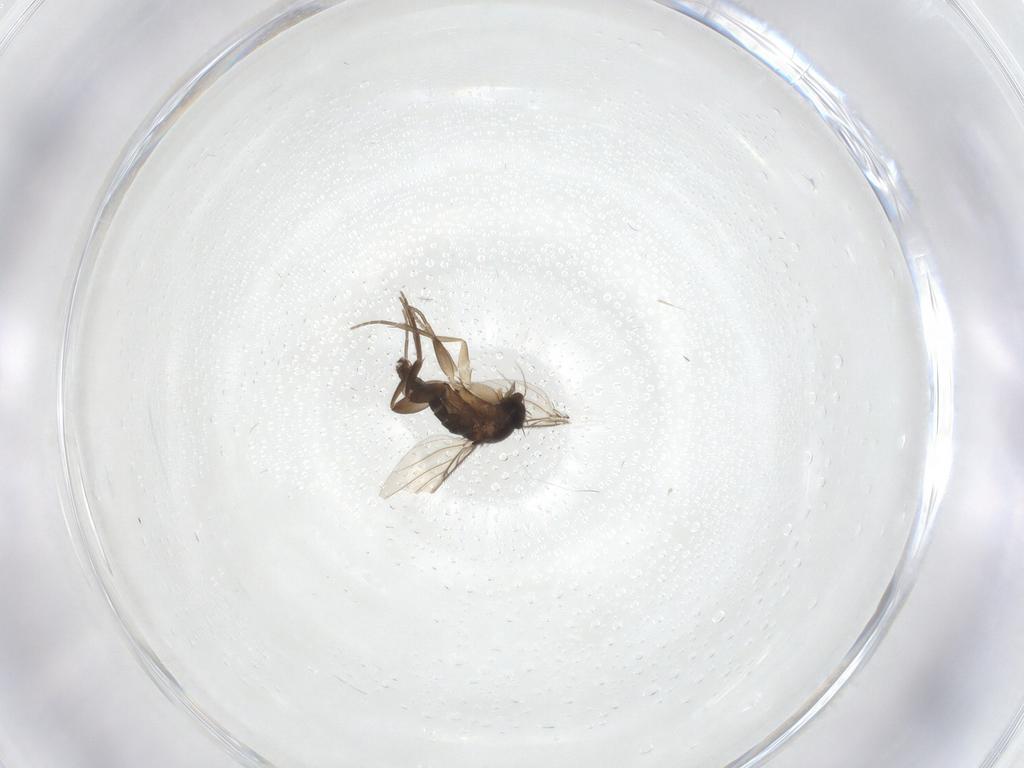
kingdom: Animalia
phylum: Arthropoda
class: Insecta
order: Diptera
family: Phoridae
